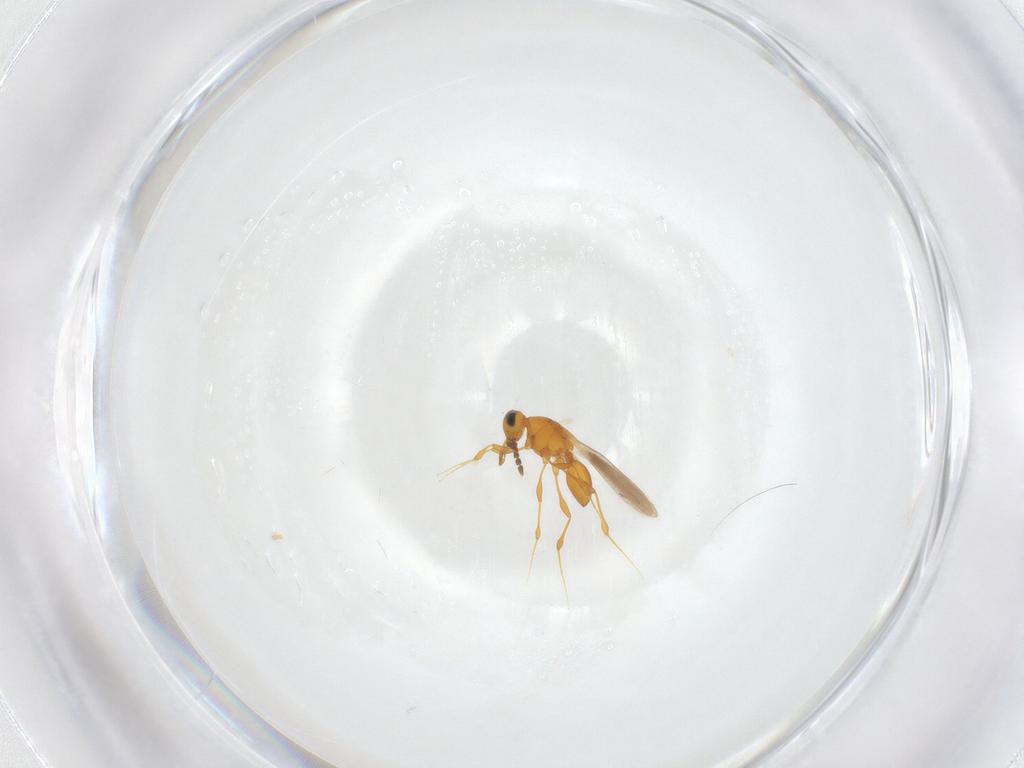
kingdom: Animalia
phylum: Arthropoda
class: Insecta
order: Hymenoptera
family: Platygastridae
